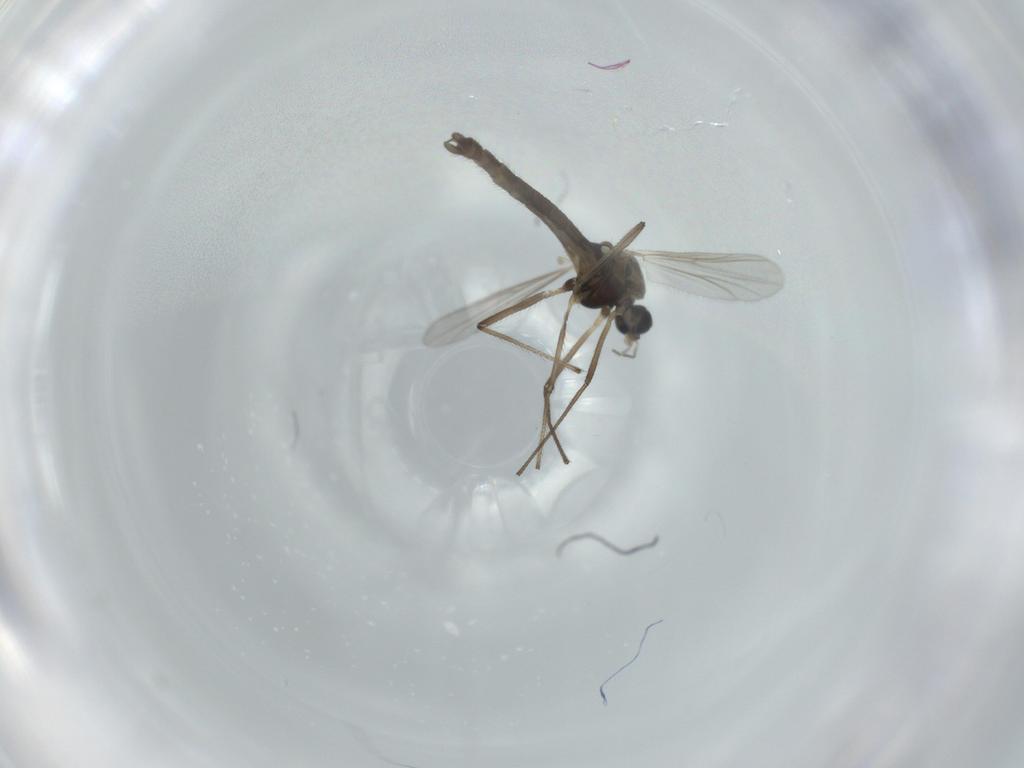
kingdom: Animalia
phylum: Arthropoda
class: Insecta
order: Diptera
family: Chironomidae
